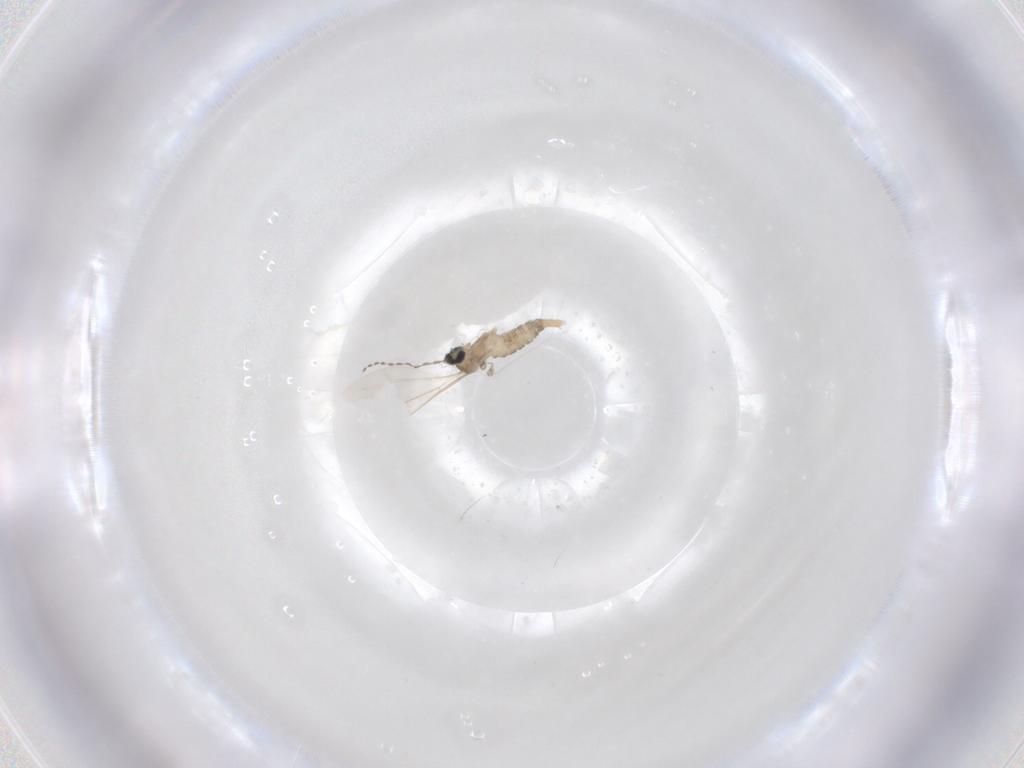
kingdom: Animalia
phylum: Arthropoda
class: Insecta
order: Diptera
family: Cecidomyiidae
